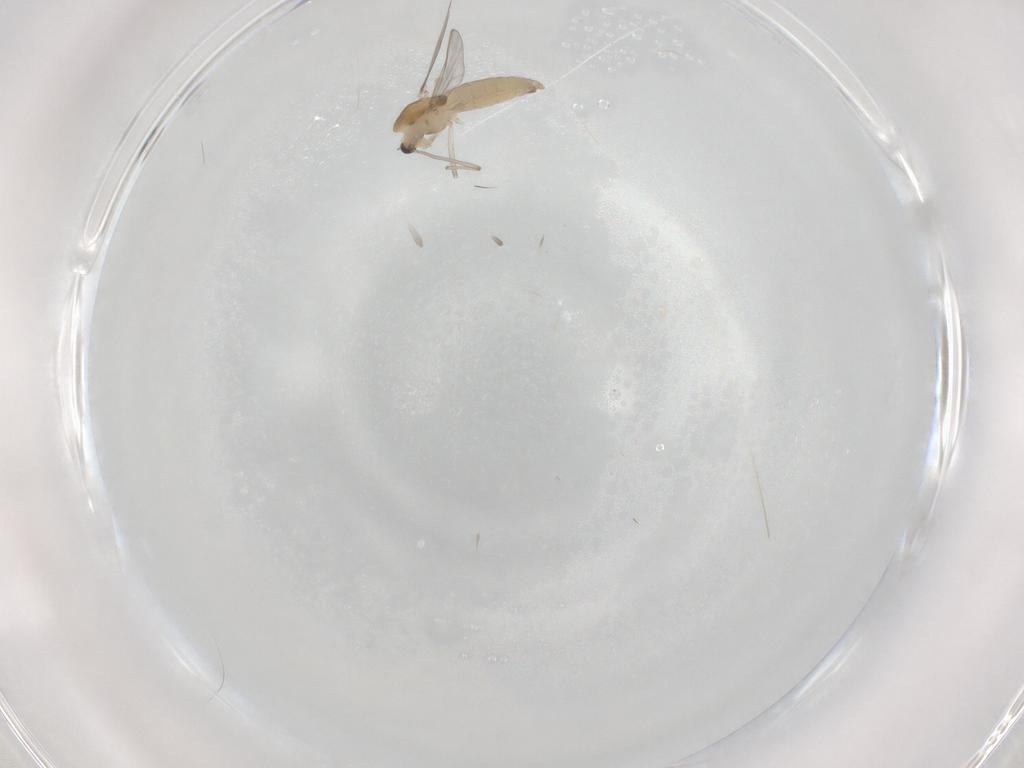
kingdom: Animalia
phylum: Arthropoda
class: Insecta
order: Diptera
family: Chironomidae
